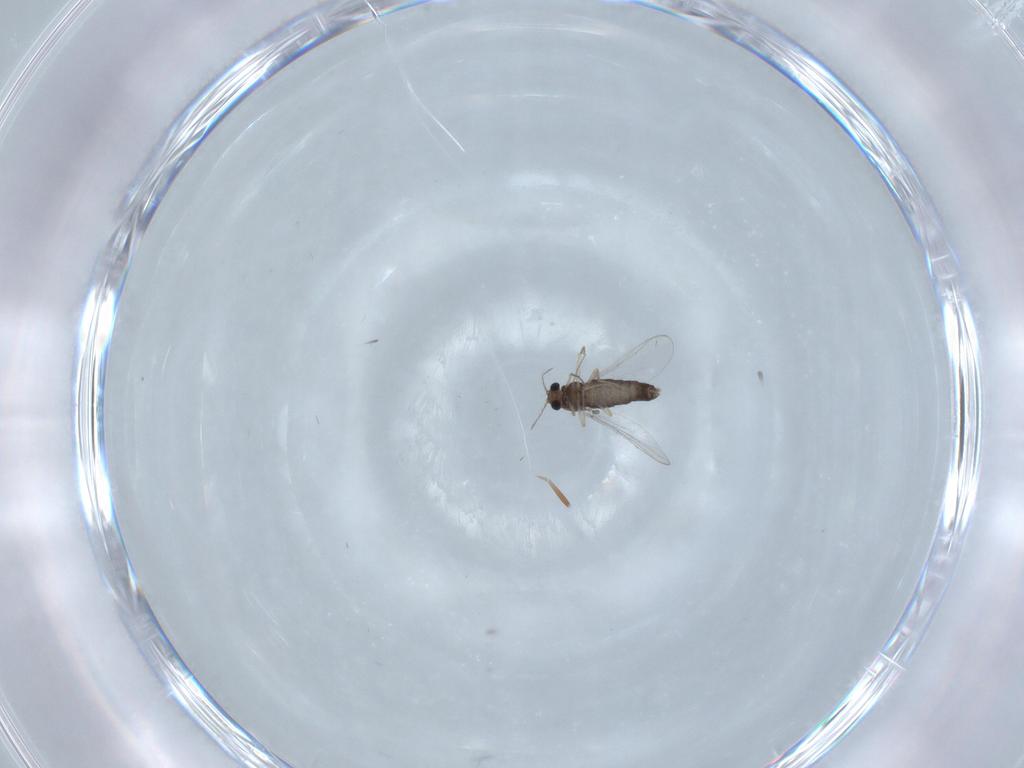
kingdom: Animalia
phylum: Arthropoda
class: Insecta
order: Diptera
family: Chironomidae
